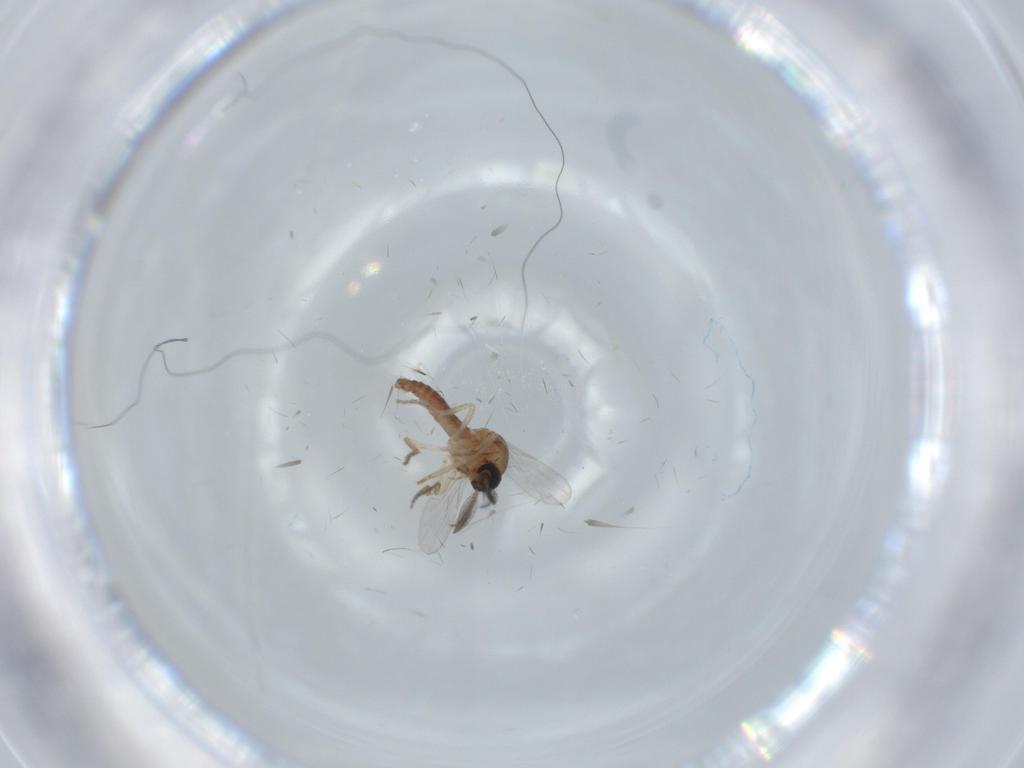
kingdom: Animalia
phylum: Arthropoda
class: Insecta
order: Diptera
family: Ceratopogonidae
